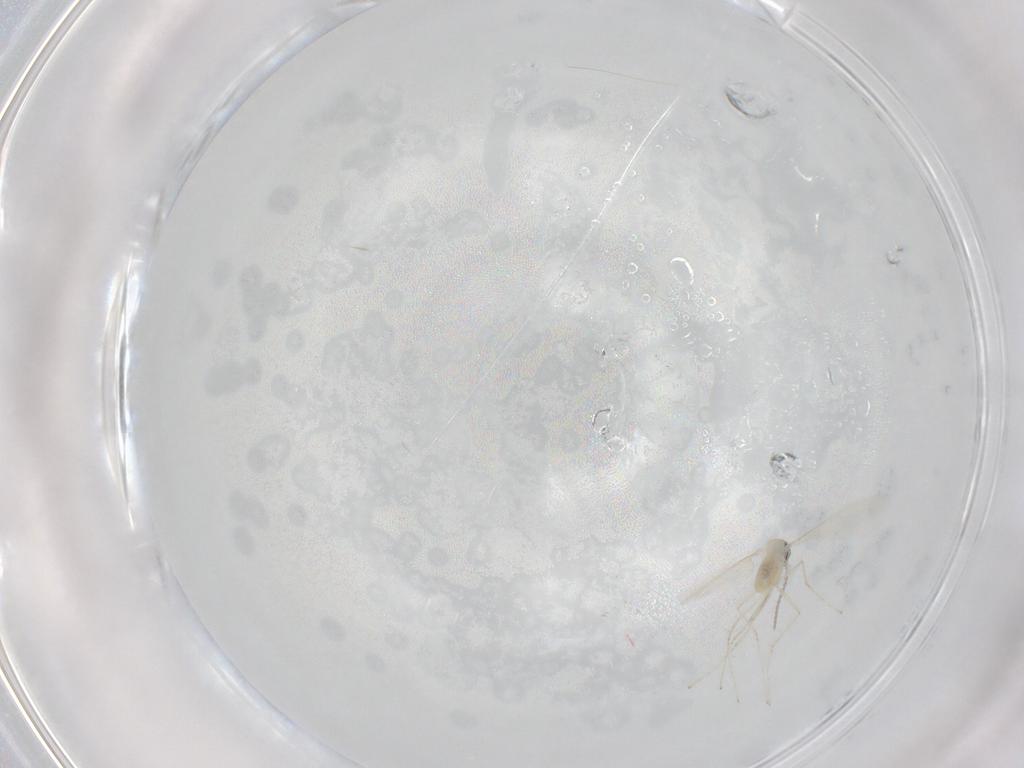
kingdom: Animalia
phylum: Arthropoda
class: Insecta
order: Diptera
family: Cecidomyiidae
